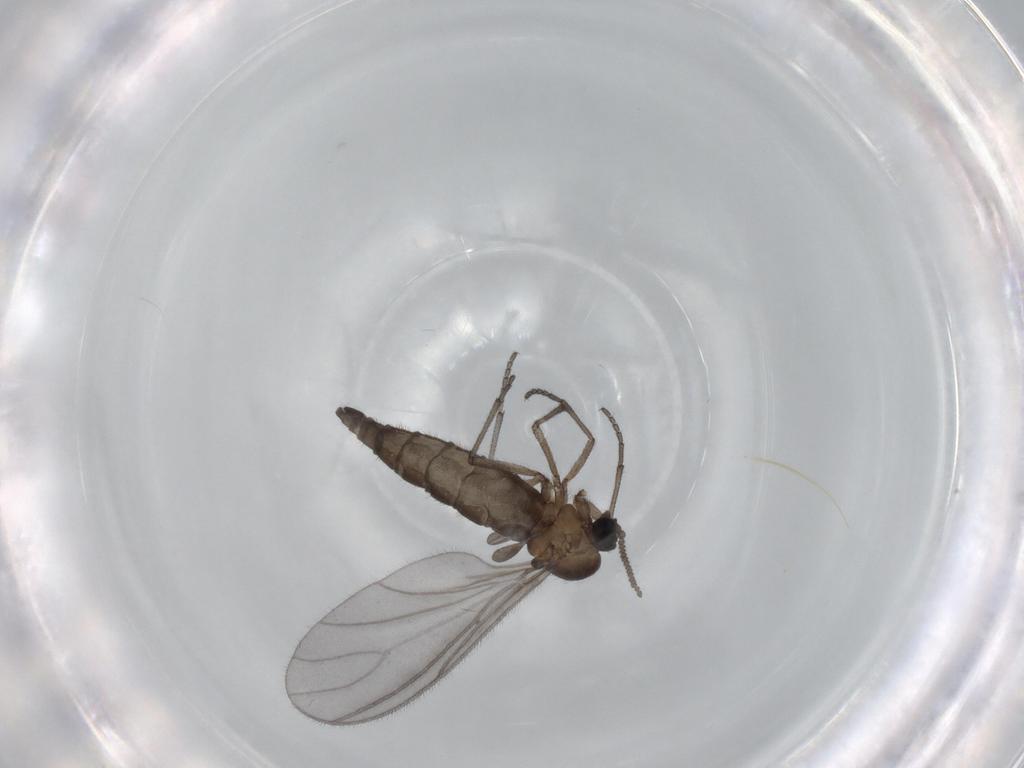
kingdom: Animalia
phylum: Arthropoda
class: Insecta
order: Diptera
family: Sciaridae
